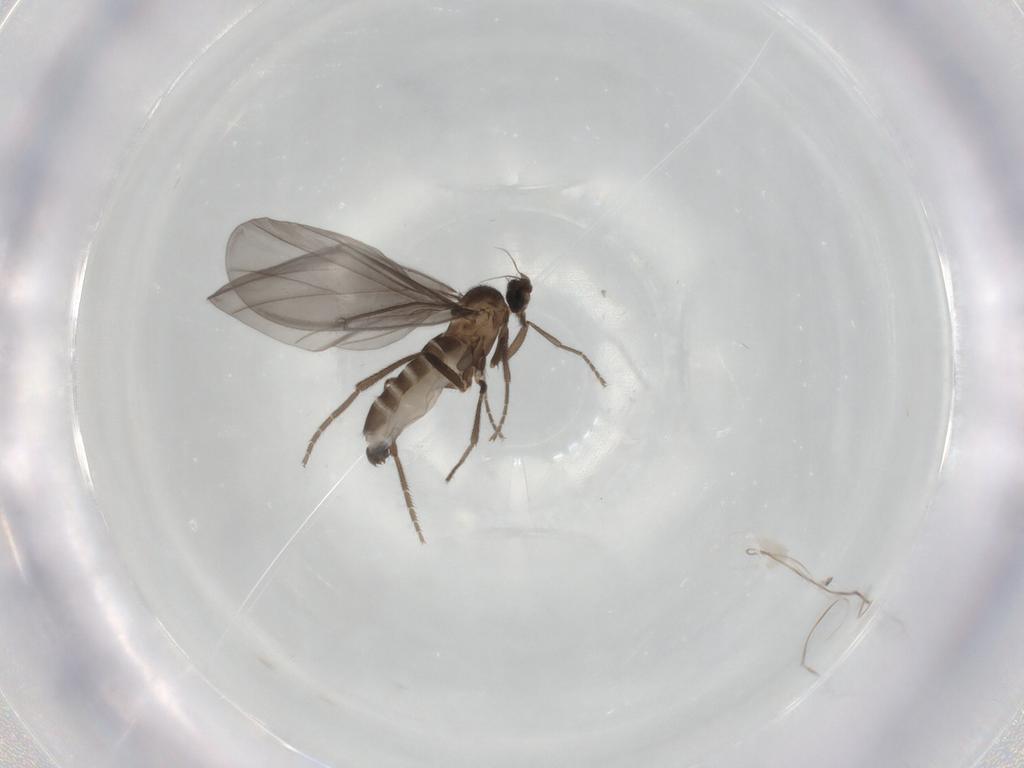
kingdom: Animalia
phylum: Arthropoda
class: Insecta
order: Diptera
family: Phoridae
